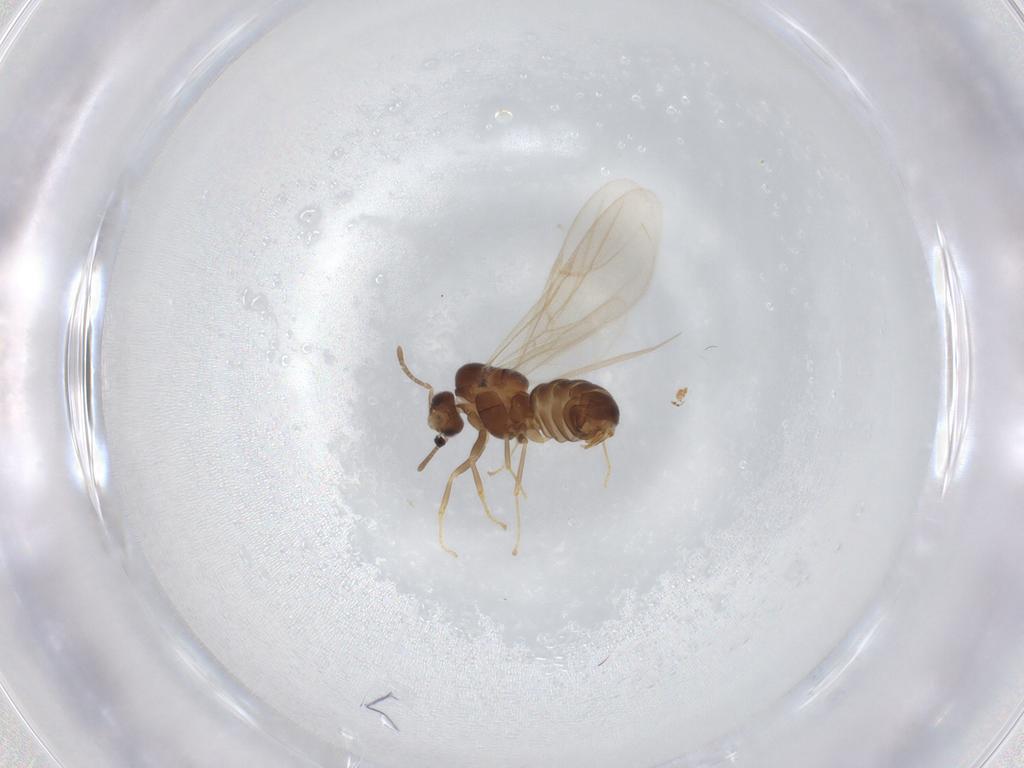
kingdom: Animalia
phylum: Arthropoda
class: Insecta
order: Hymenoptera
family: Formicidae
